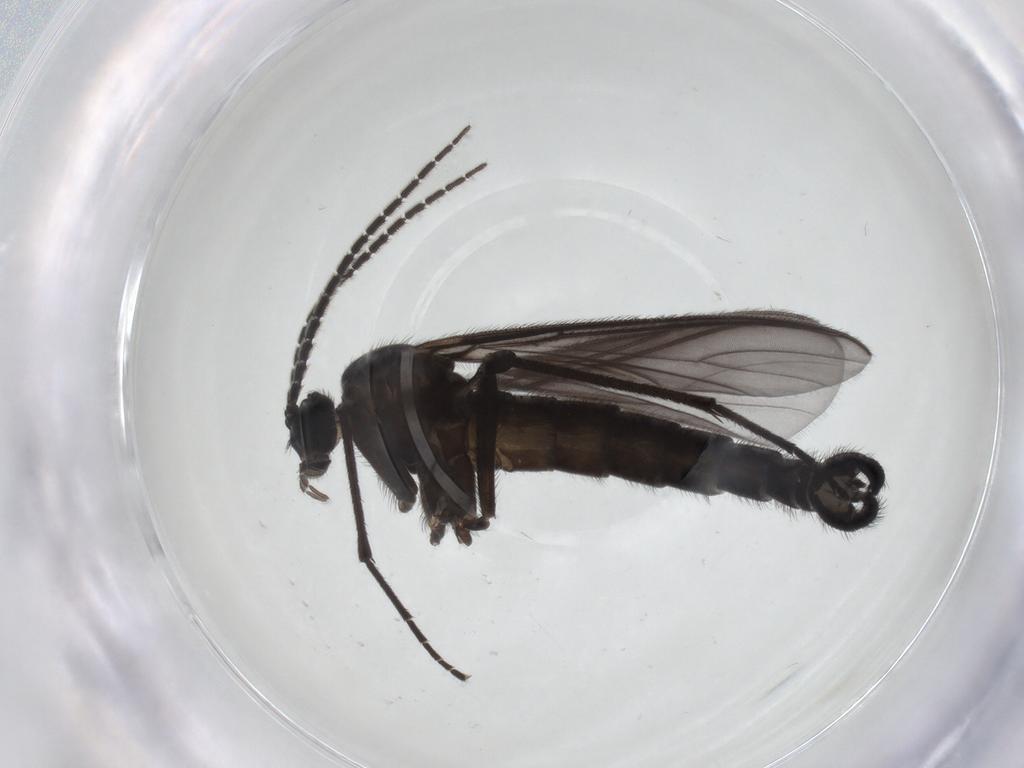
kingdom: Animalia
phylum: Arthropoda
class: Insecta
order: Diptera
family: Sciaridae
